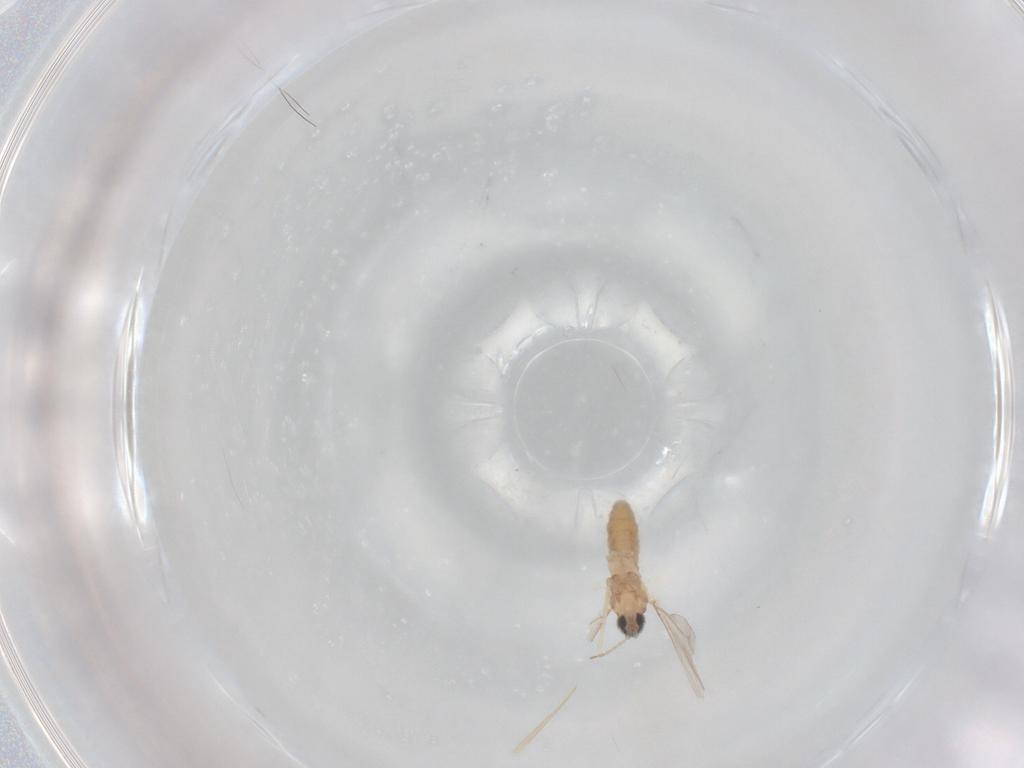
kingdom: Animalia
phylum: Arthropoda
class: Insecta
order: Diptera
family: Cecidomyiidae
